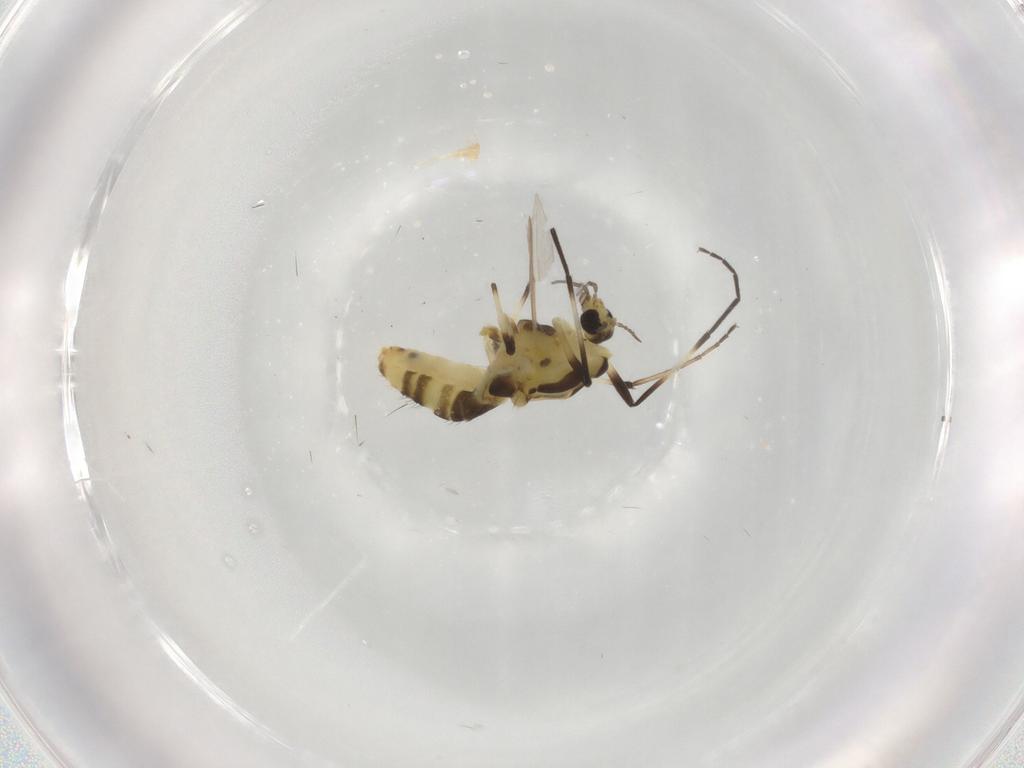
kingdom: Animalia
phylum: Arthropoda
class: Insecta
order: Diptera
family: Chironomidae
